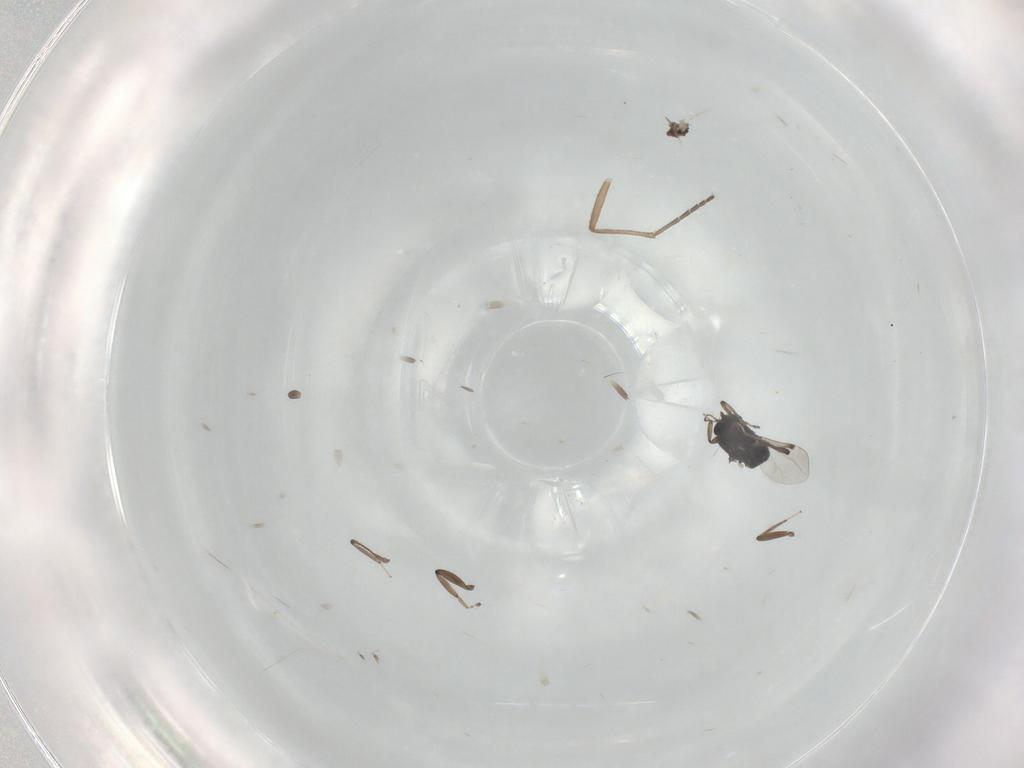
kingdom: Animalia
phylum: Arthropoda
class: Insecta
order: Diptera
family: Ceratopogonidae
